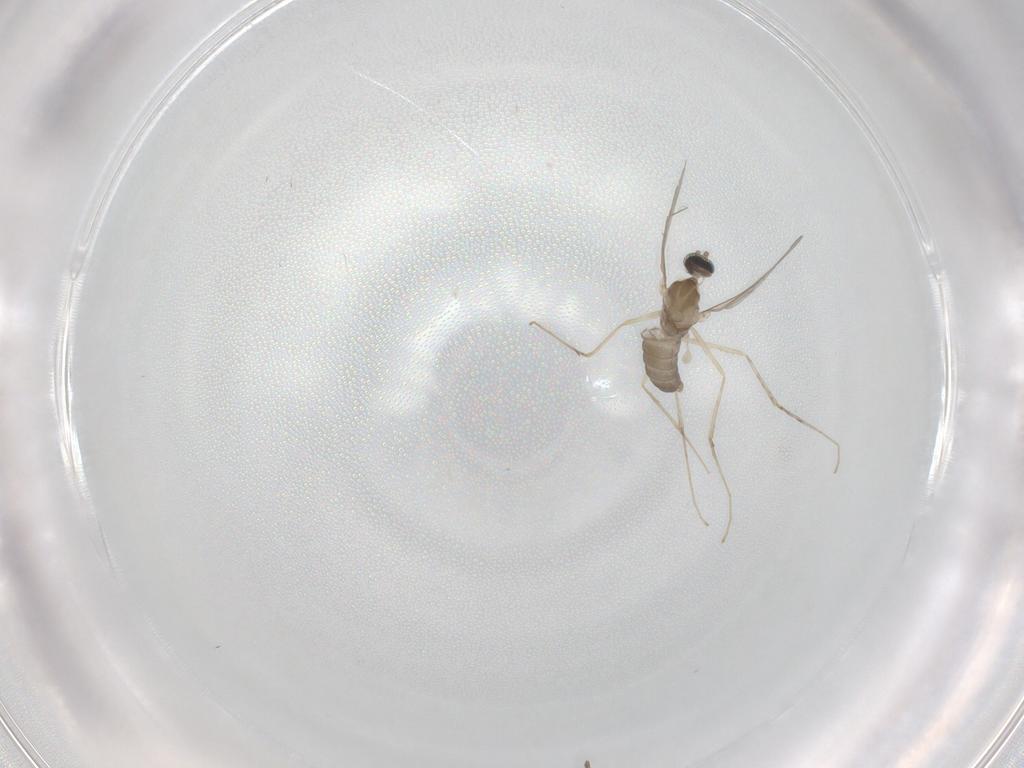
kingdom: Animalia
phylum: Arthropoda
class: Insecta
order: Diptera
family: Cecidomyiidae
